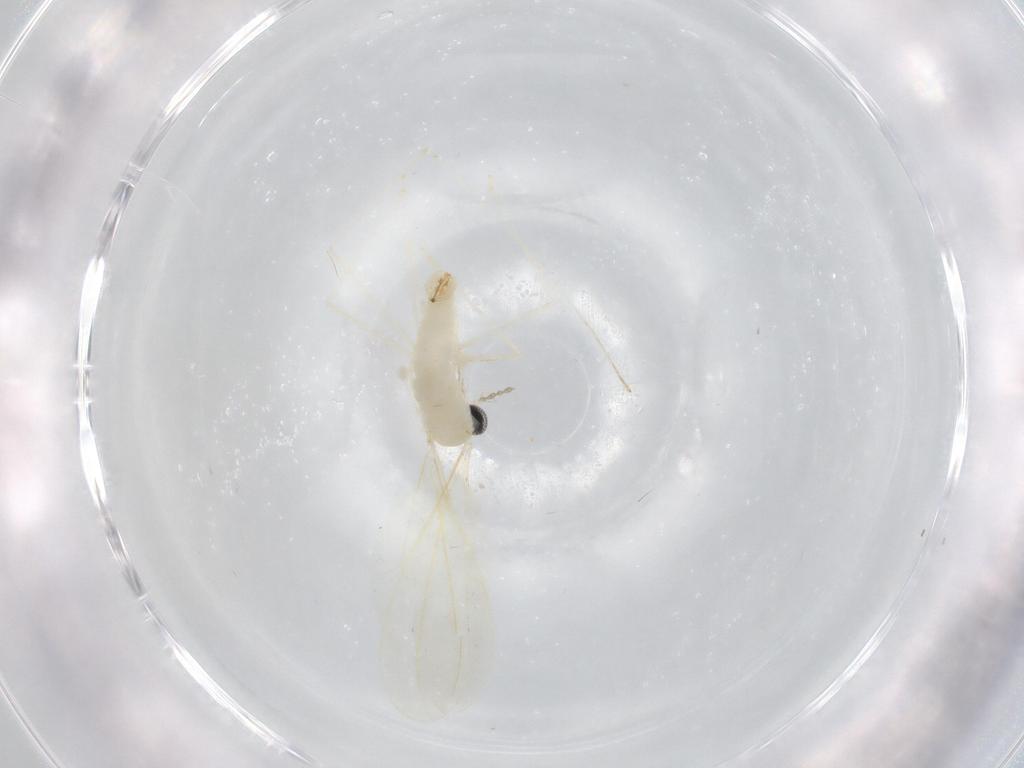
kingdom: Animalia
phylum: Arthropoda
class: Insecta
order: Diptera
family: Cecidomyiidae
